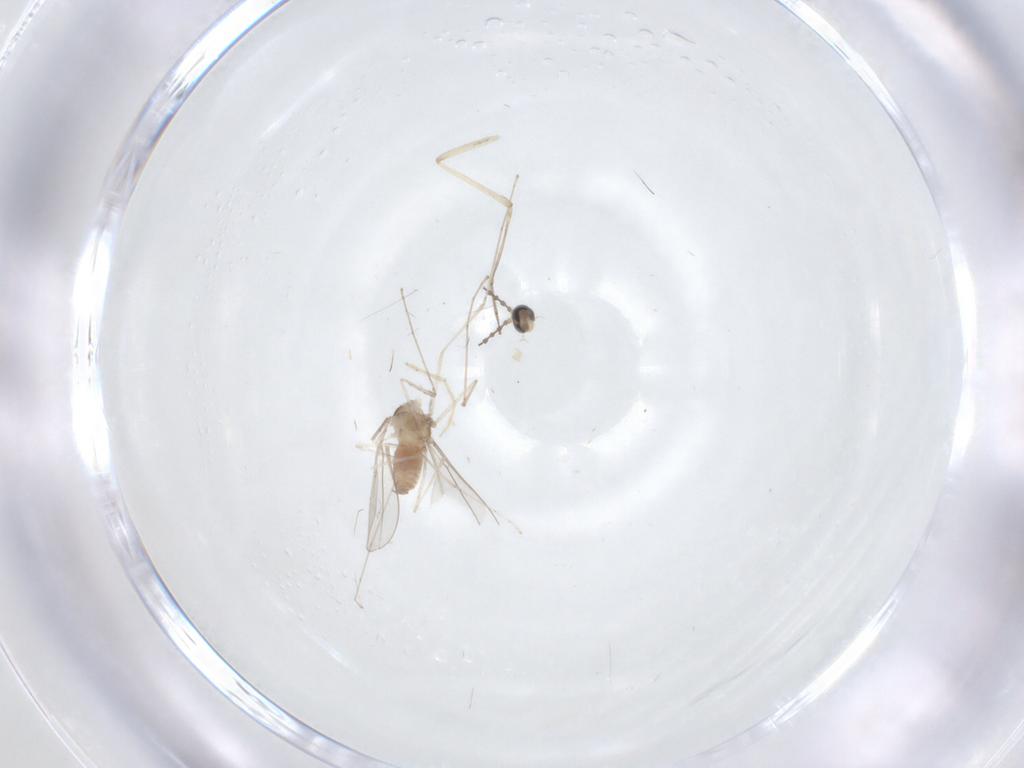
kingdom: Animalia
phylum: Arthropoda
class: Insecta
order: Diptera
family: Cecidomyiidae
